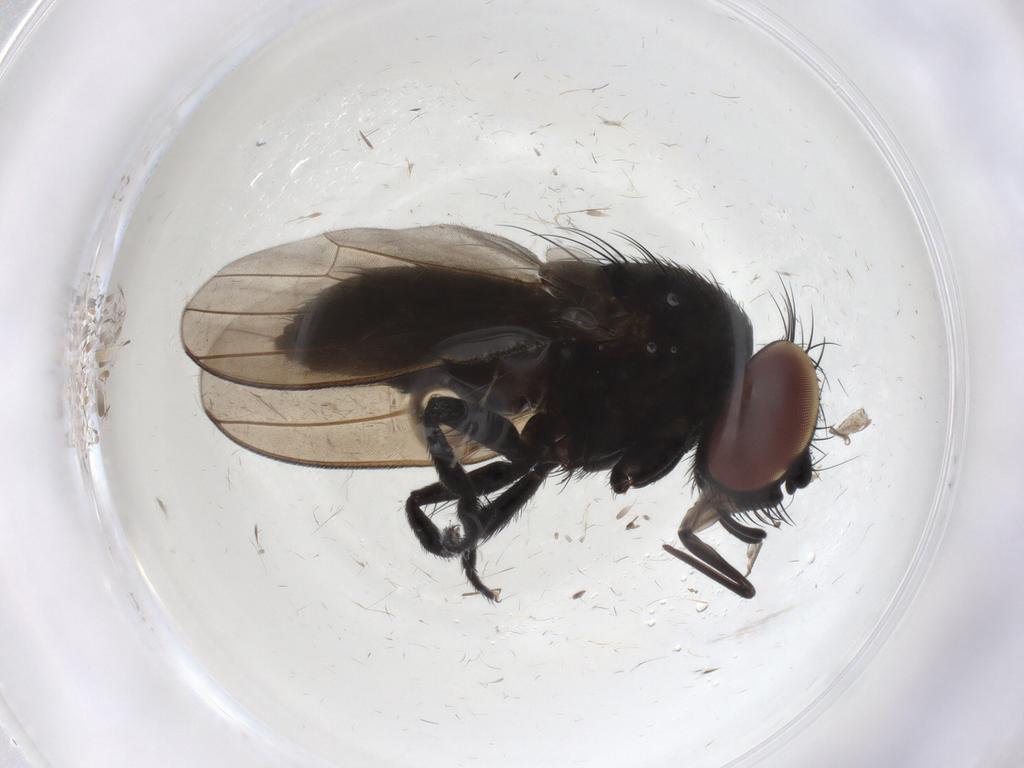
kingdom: Animalia
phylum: Arthropoda
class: Insecta
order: Diptera
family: Milichiidae
